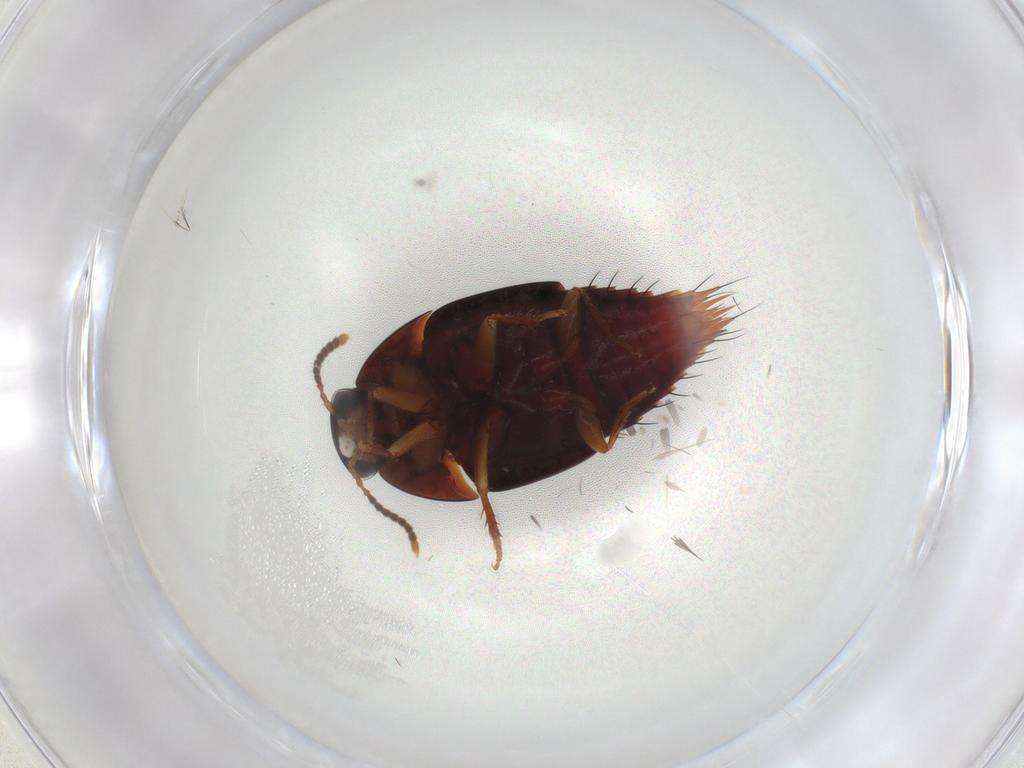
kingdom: Animalia
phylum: Arthropoda
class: Insecta
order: Coleoptera
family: Staphylinidae
